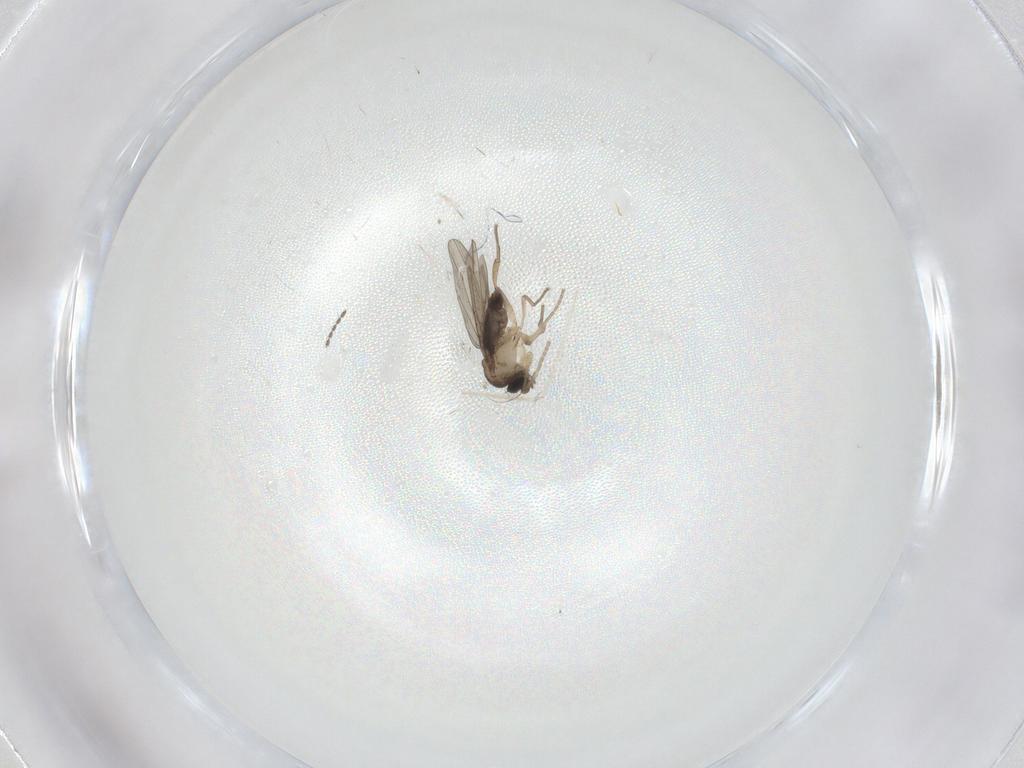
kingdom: Animalia
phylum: Arthropoda
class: Insecta
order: Diptera
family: Phoridae
